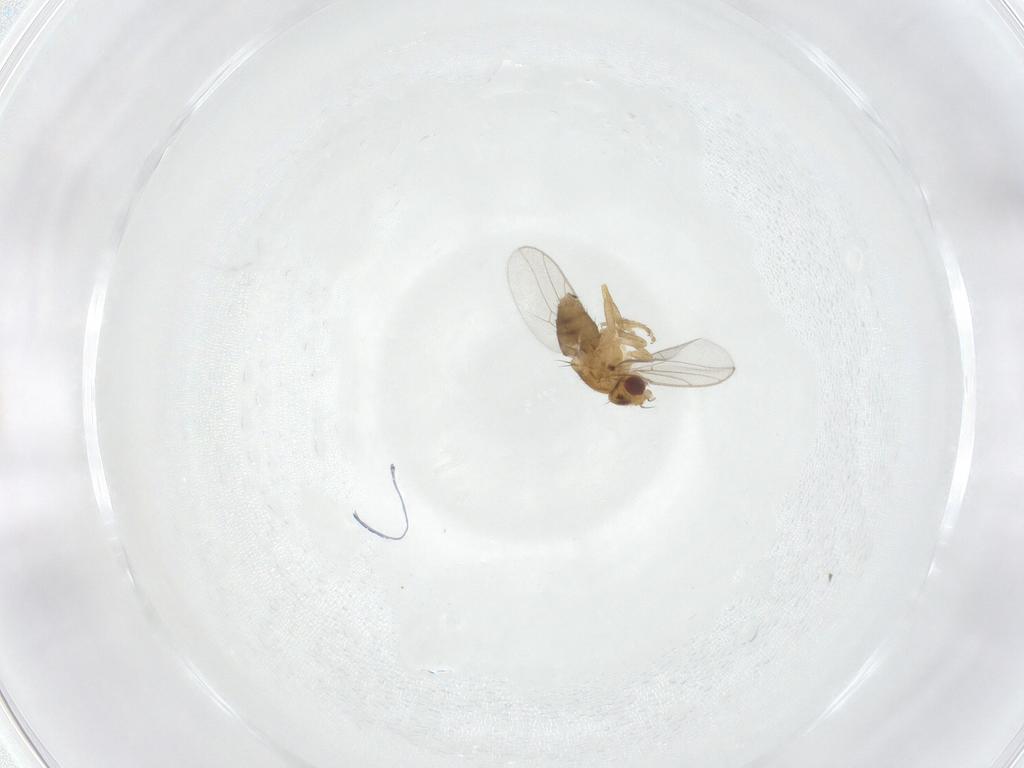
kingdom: Animalia
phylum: Arthropoda
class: Insecta
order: Diptera
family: Chloropidae
